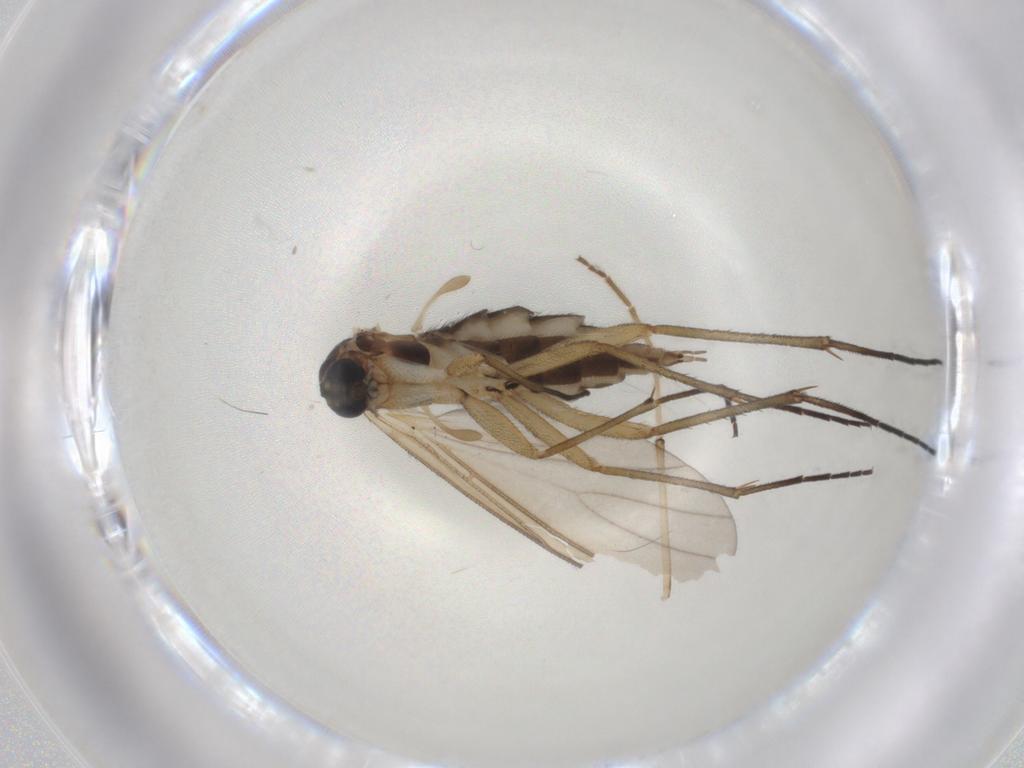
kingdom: Animalia
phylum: Arthropoda
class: Insecta
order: Diptera
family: Sciaridae
